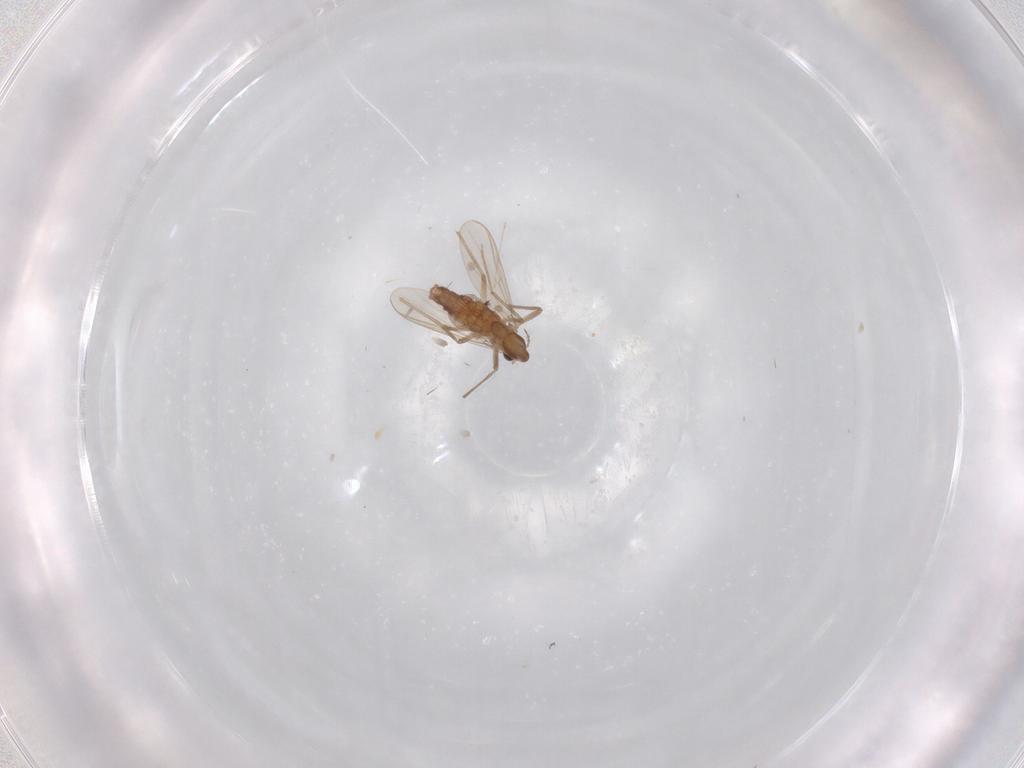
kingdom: Animalia
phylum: Arthropoda
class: Insecta
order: Diptera
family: Chironomidae
